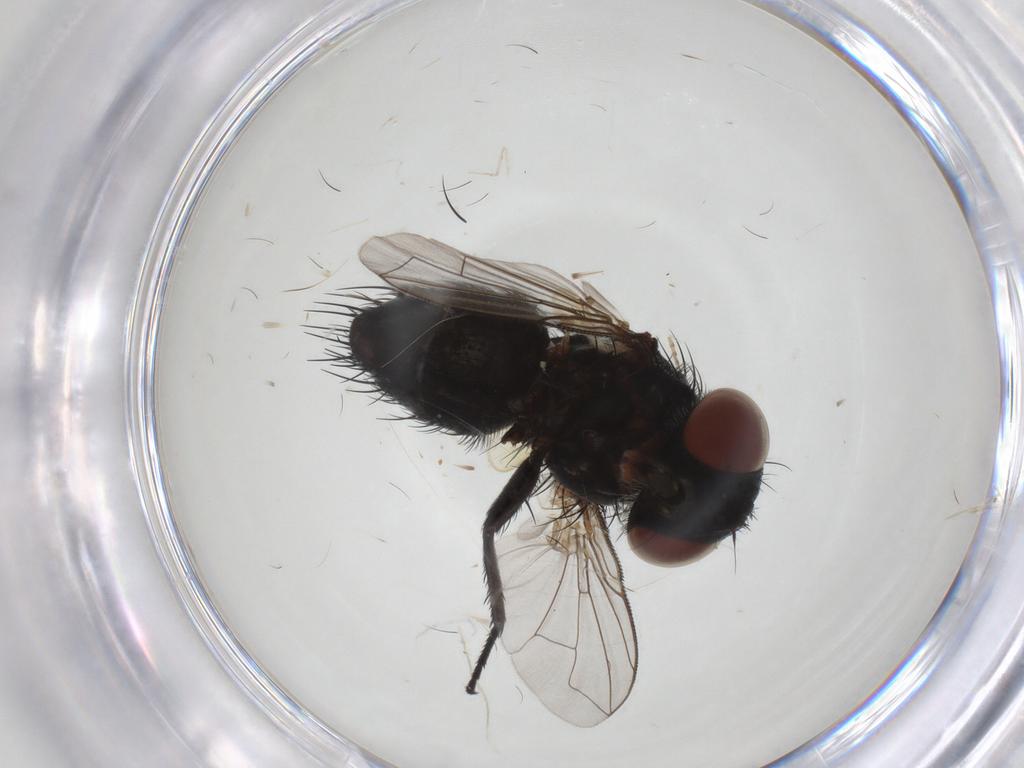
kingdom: Animalia
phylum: Arthropoda
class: Insecta
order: Diptera
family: Tachinidae
